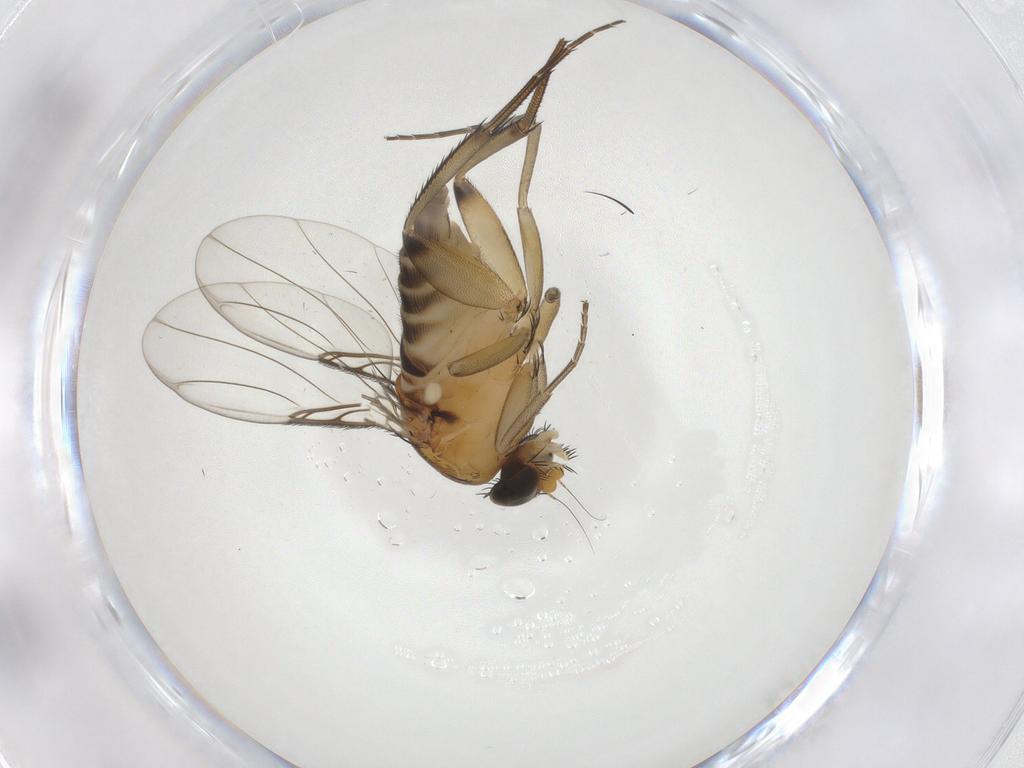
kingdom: Animalia
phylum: Arthropoda
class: Insecta
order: Diptera
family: Phoridae
